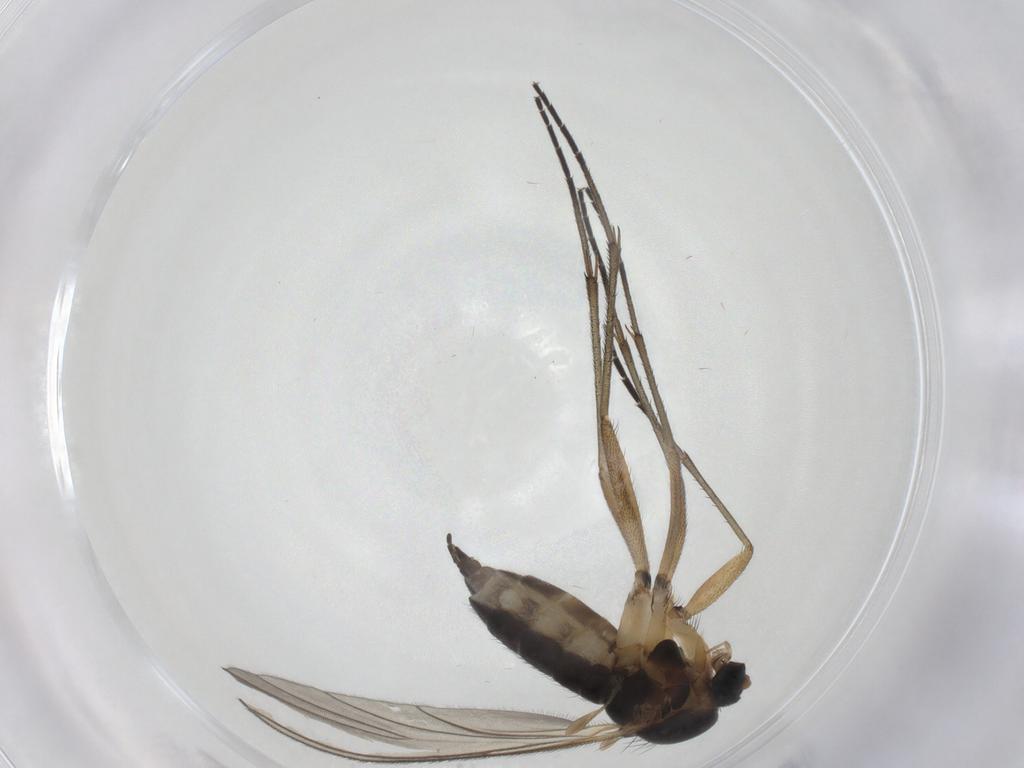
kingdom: Animalia
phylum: Arthropoda
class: Insecta
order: Diptera
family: Sciaridae
